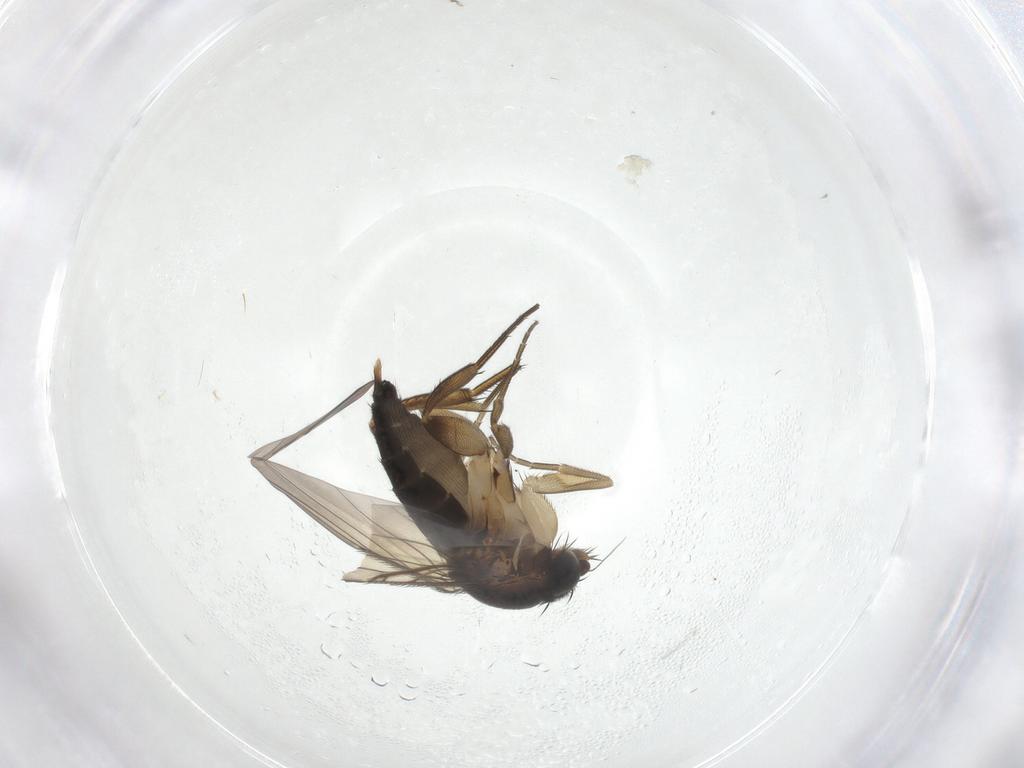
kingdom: Animalia
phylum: Arthropoda
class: Insecta
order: Diptera
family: Phoridae
